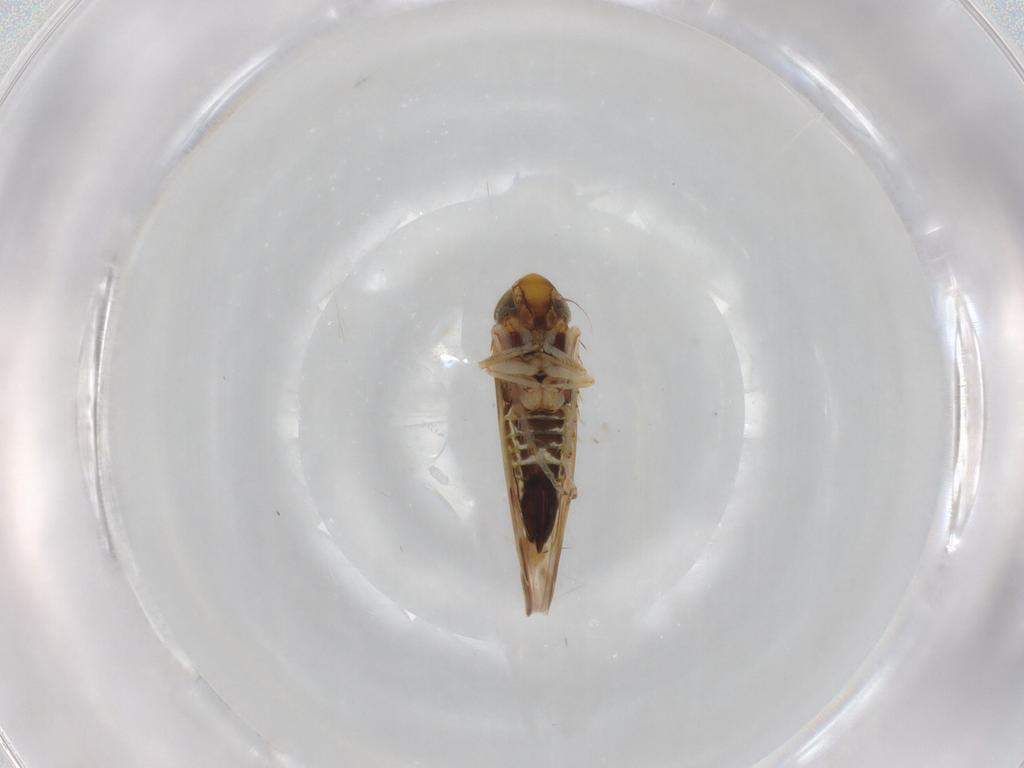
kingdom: Animalia
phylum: Arthropoda
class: Insecta
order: Hemiptera
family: Cicadellidae
